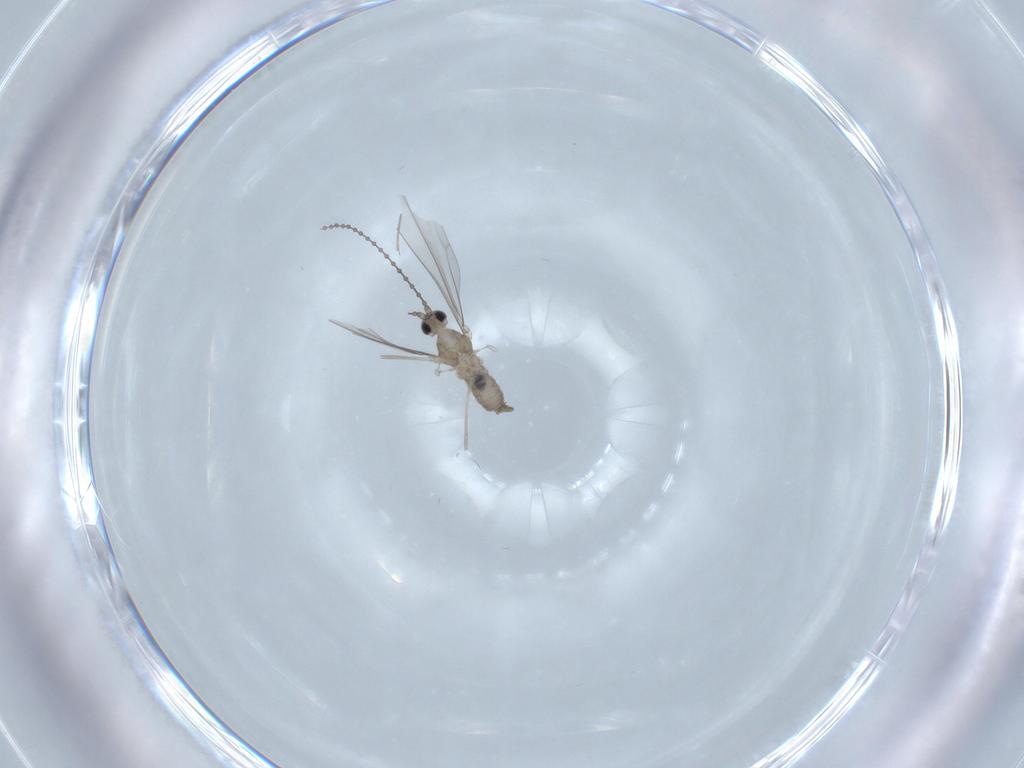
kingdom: Animalia
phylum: Arthropoda
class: Insecta
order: Diptera
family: Cecidomyiidae
